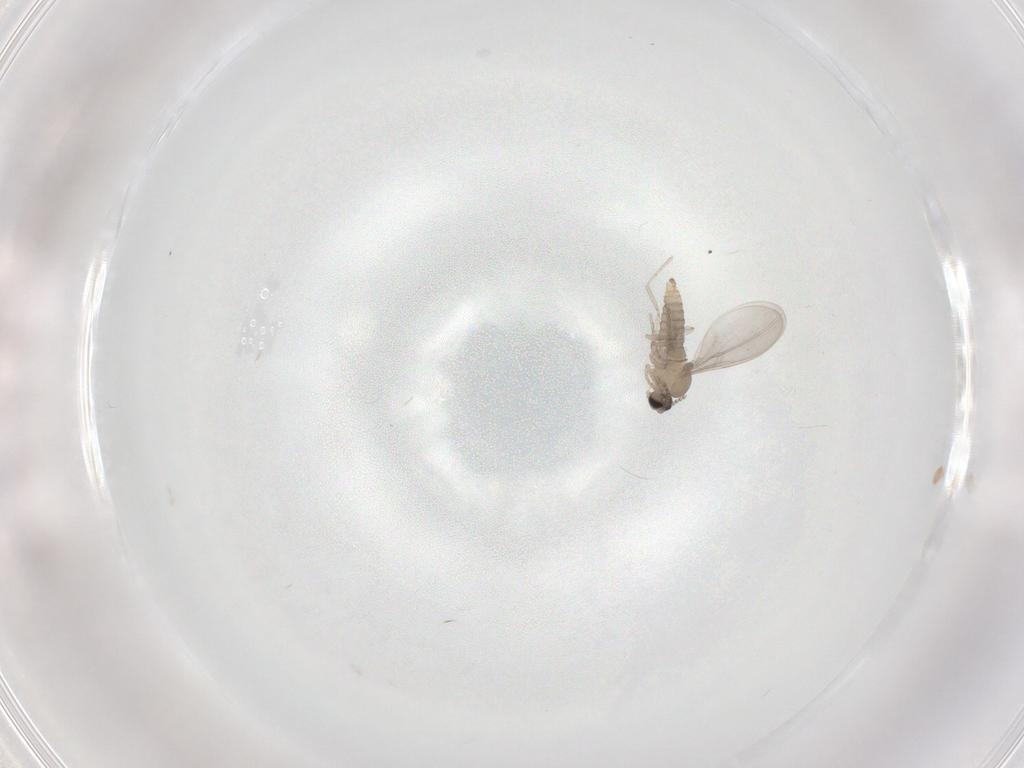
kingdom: Animalia
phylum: Arthropoda
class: Insecta
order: Diptera
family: Cecidomyiidae
